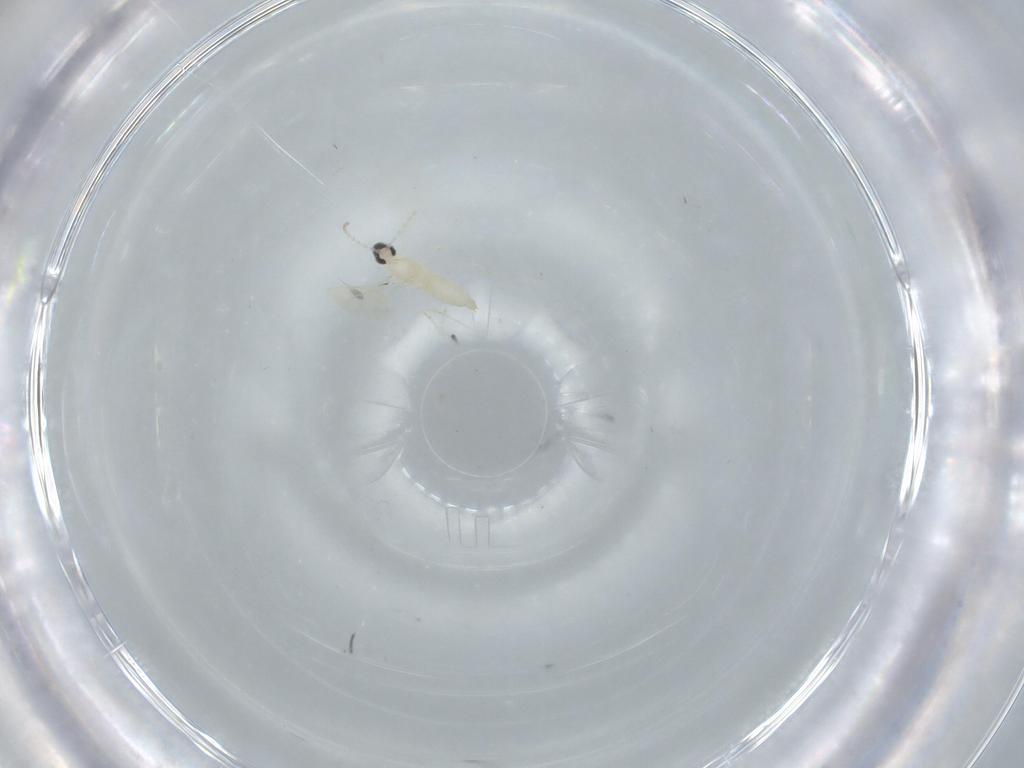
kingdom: Animalia
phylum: Arthropoda
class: Insecta
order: Diptera
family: Cecidomyiidae
